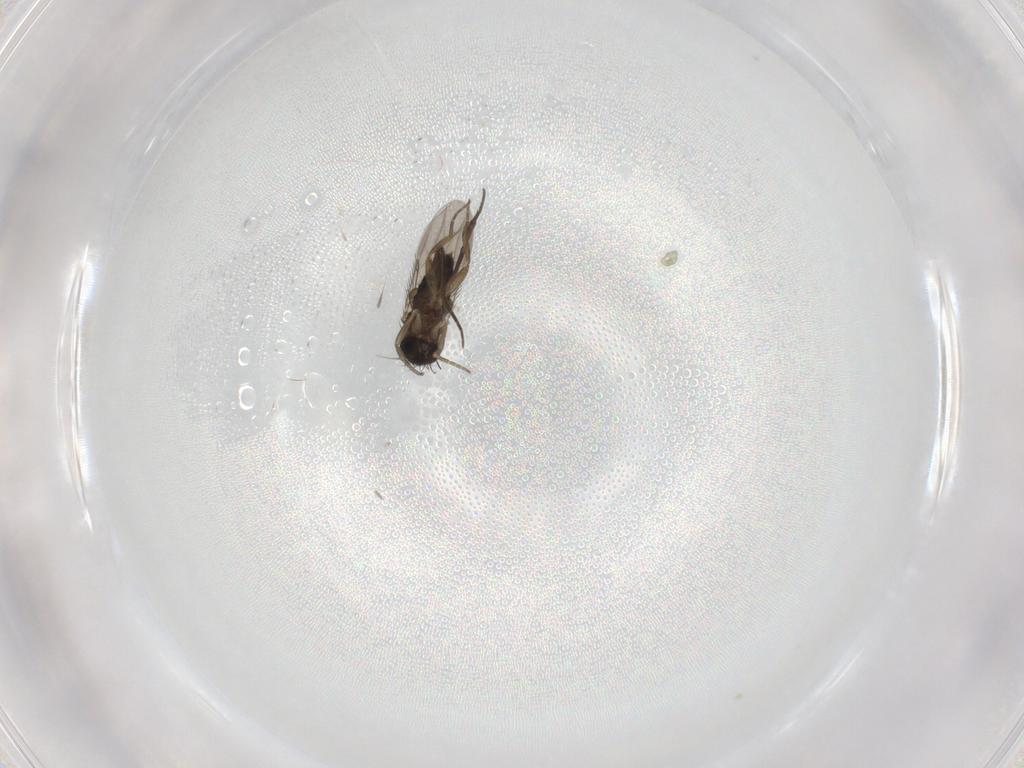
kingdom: Animalia
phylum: Arthropoda
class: Insecta
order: Diptera
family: Phoridae
